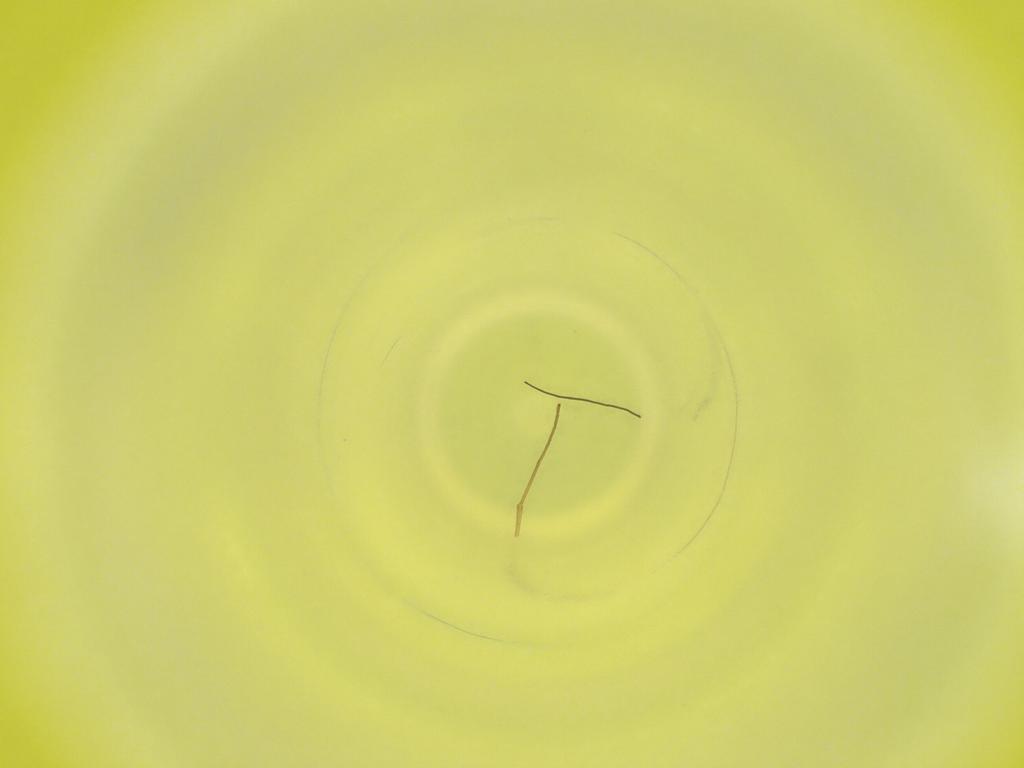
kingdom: Animalia
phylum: Arthropoda
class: Insecta
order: Diptera
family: Cecidomyiidae
